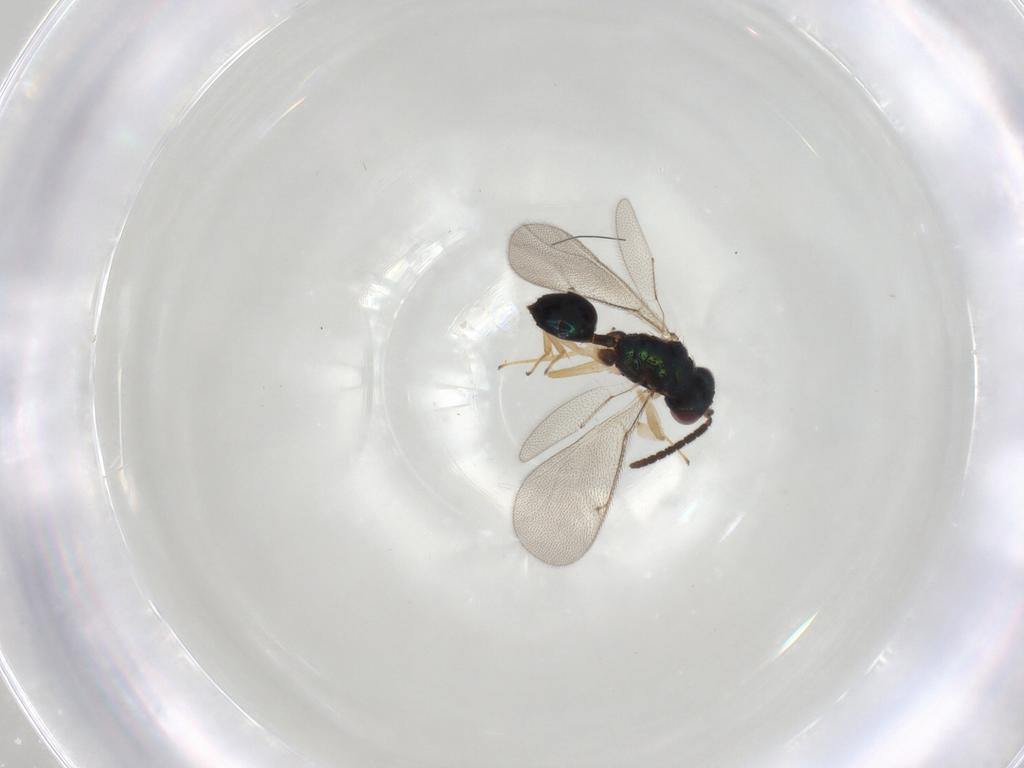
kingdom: Animalia
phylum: Arthropoda
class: Insecta
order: Hymenoptera
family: Tetracampidae
